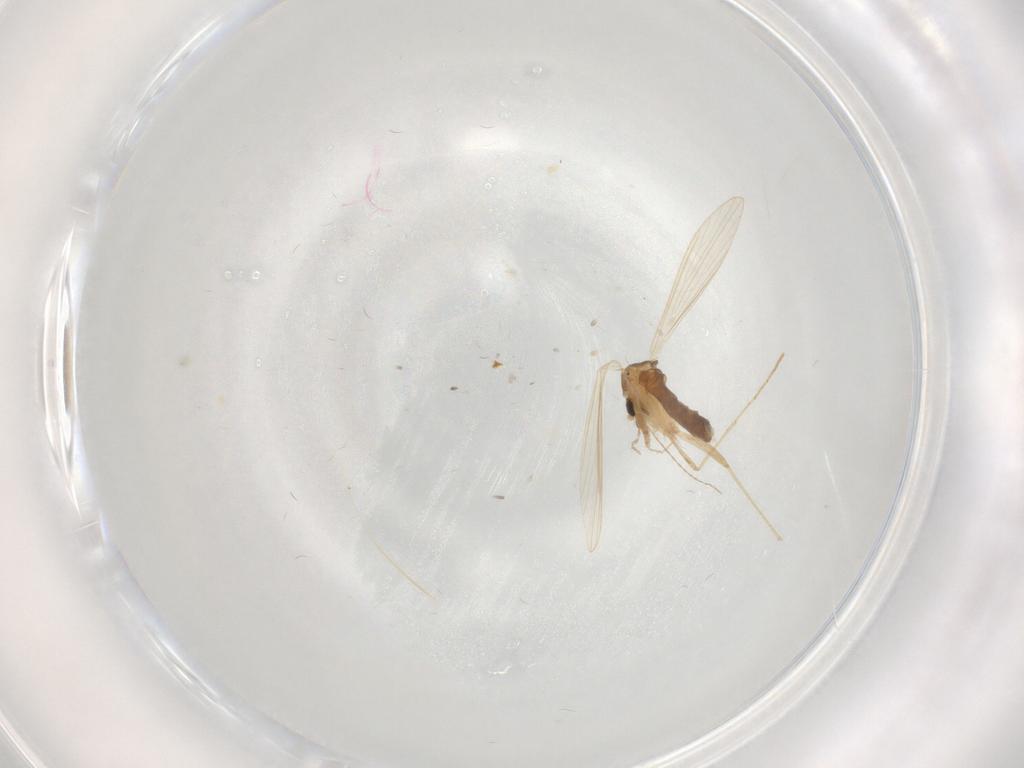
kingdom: Animalia
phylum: Arthropoda
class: Insecta
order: Diptera
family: Psychodidae
